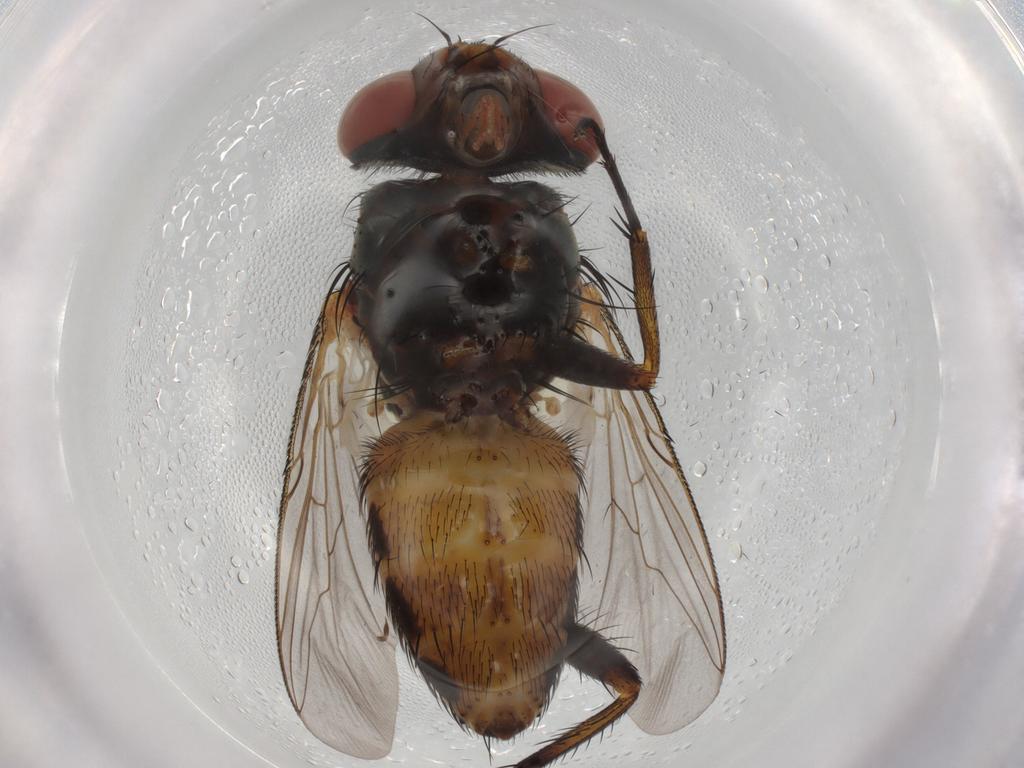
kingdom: Animalia
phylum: Arthropoda
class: Insecta
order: Diptera
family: Sarcophagidae
